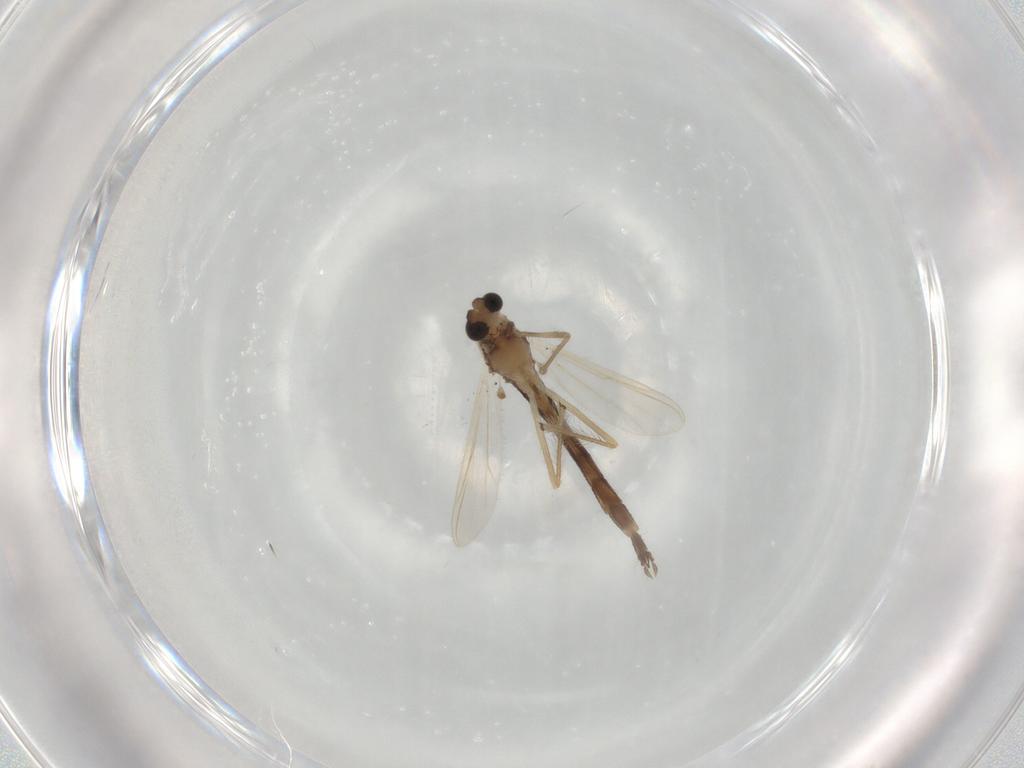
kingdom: Animalia
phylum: Arthropoda
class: Insecta
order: Diptera
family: Chironomidae
